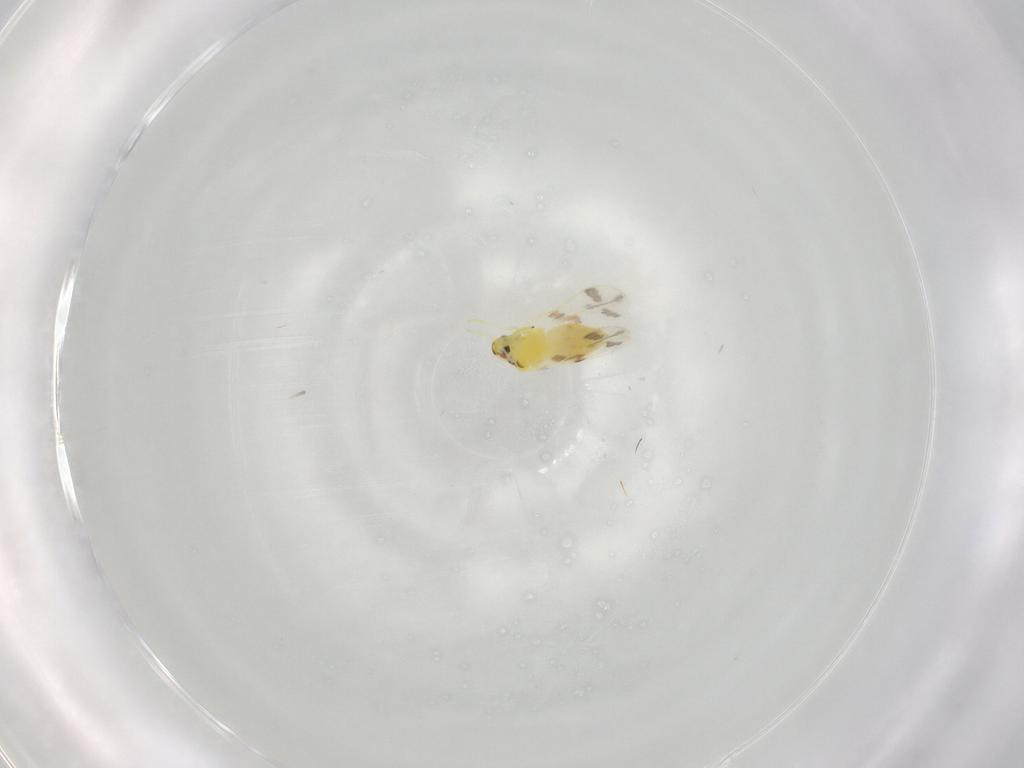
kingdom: Animalia
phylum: Arthropoda
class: Insecta
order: Hemiptera
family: Aleyrodidae
